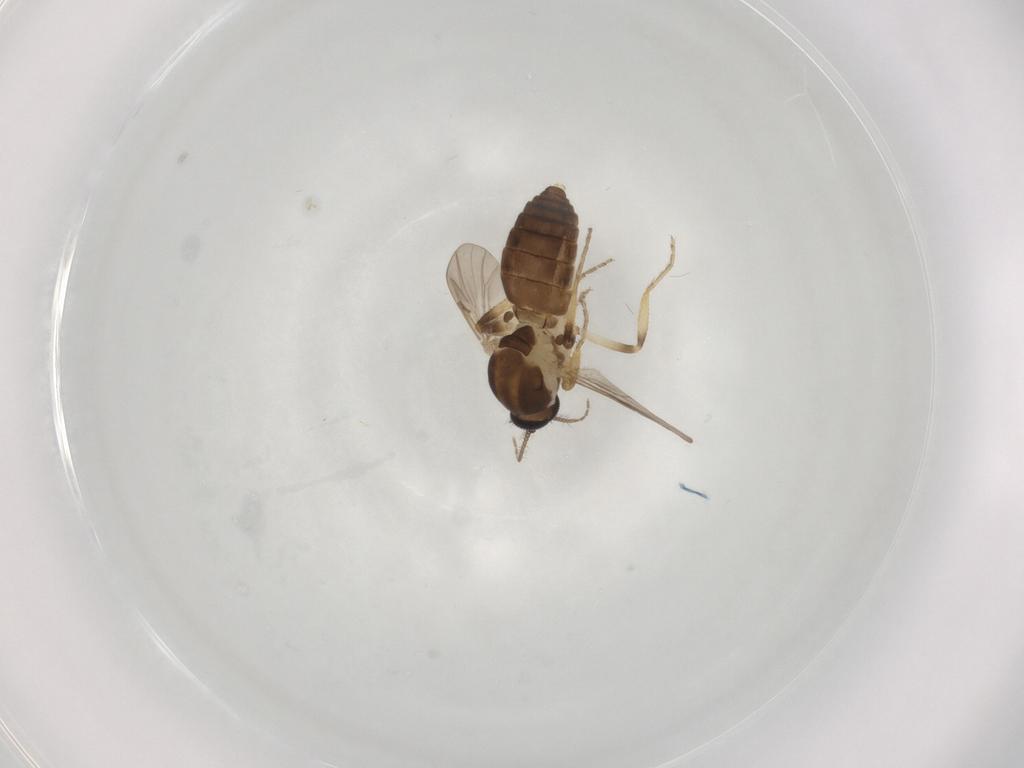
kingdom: Animalia
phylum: Arthropoda
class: Insecta
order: Diptera
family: Ceratopogonidae
